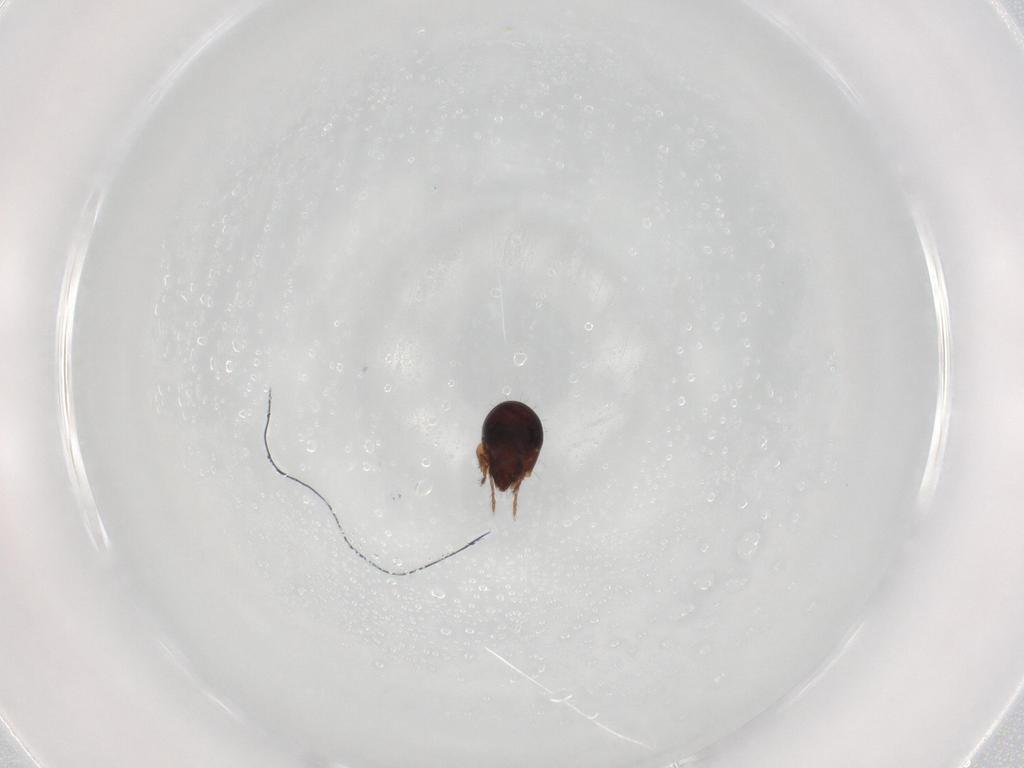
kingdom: Animalia
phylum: Arthropoda
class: Arachnida
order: Sarcoptiformes
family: Humerobatidae
